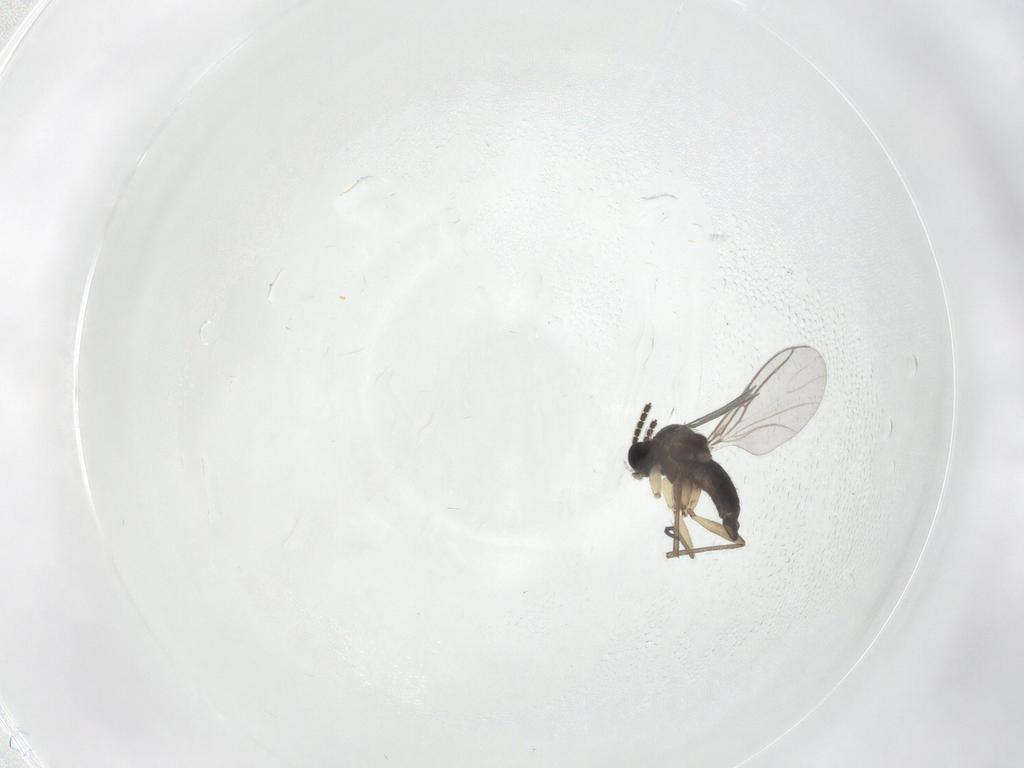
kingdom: Animalia
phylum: Arthropoda
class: Insecta
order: Diptera
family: Sciaridae
